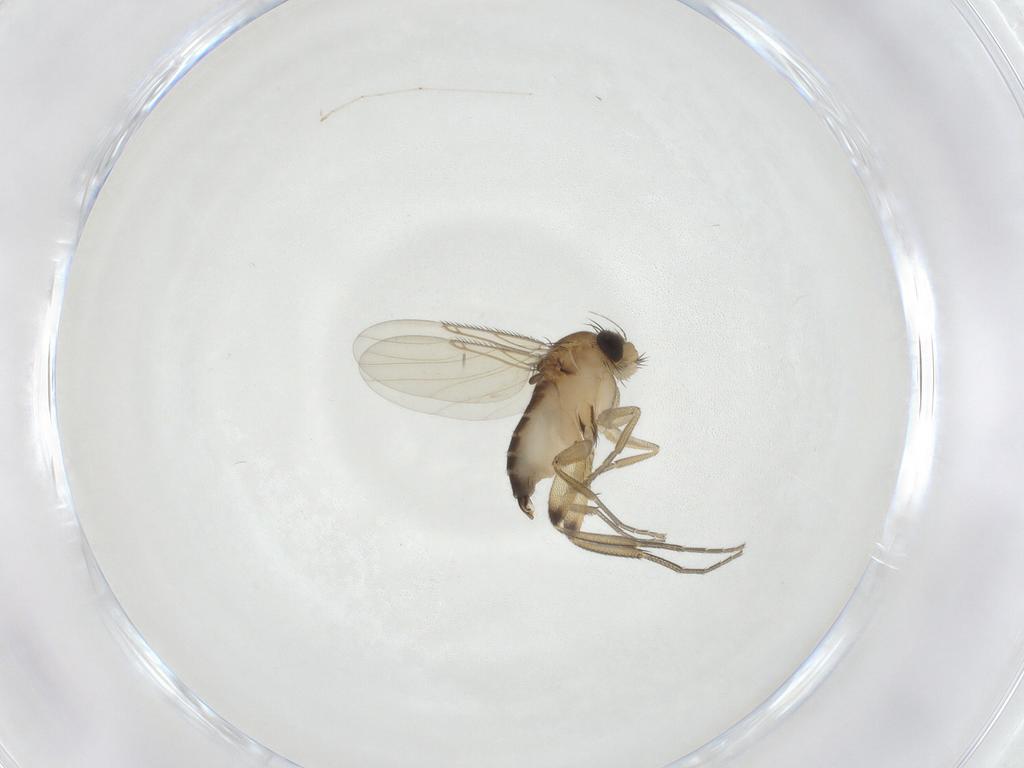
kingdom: Animalia
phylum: Arthropoda
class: Insecta
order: Diptera
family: Phoridae
